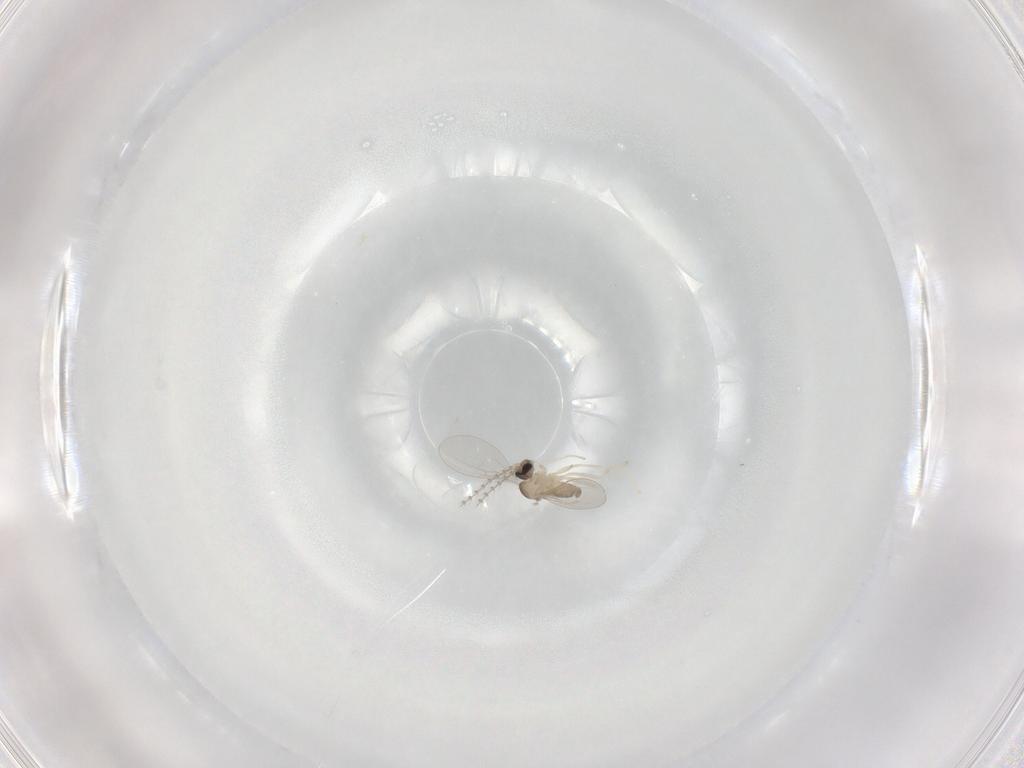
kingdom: Animalia
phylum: Arthropoda
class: Insecta
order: Diptera
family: Cecidomyiidae
